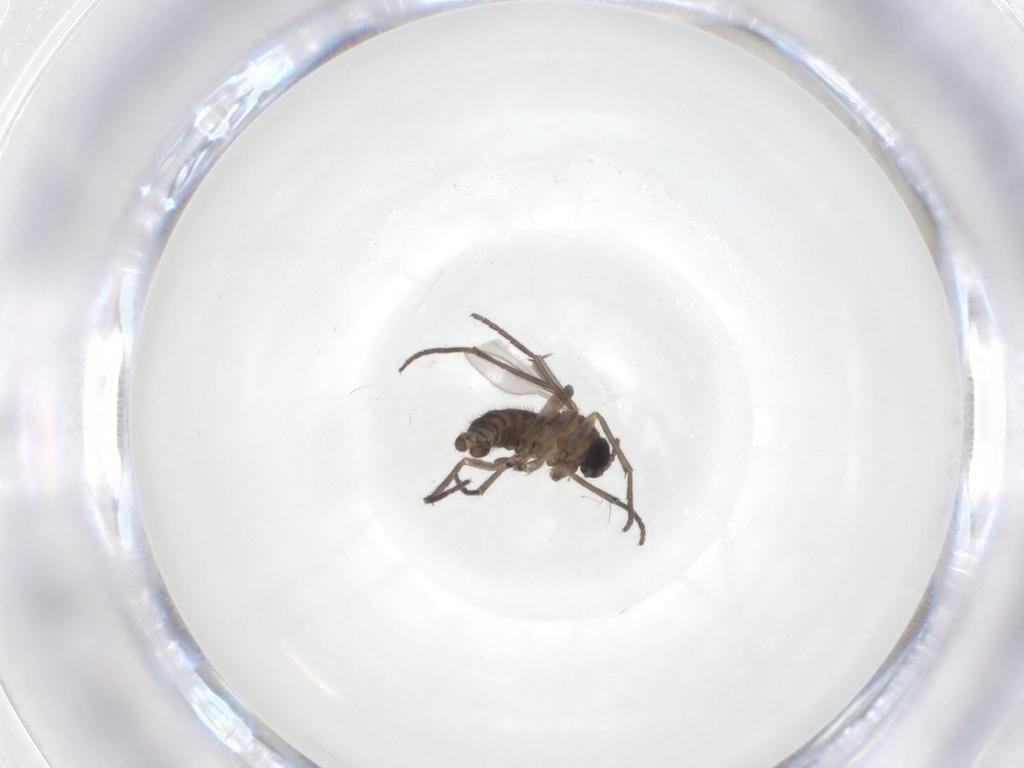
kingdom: Animalia
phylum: Arthropoda
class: Insecta
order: Diptera
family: Sciaridae
